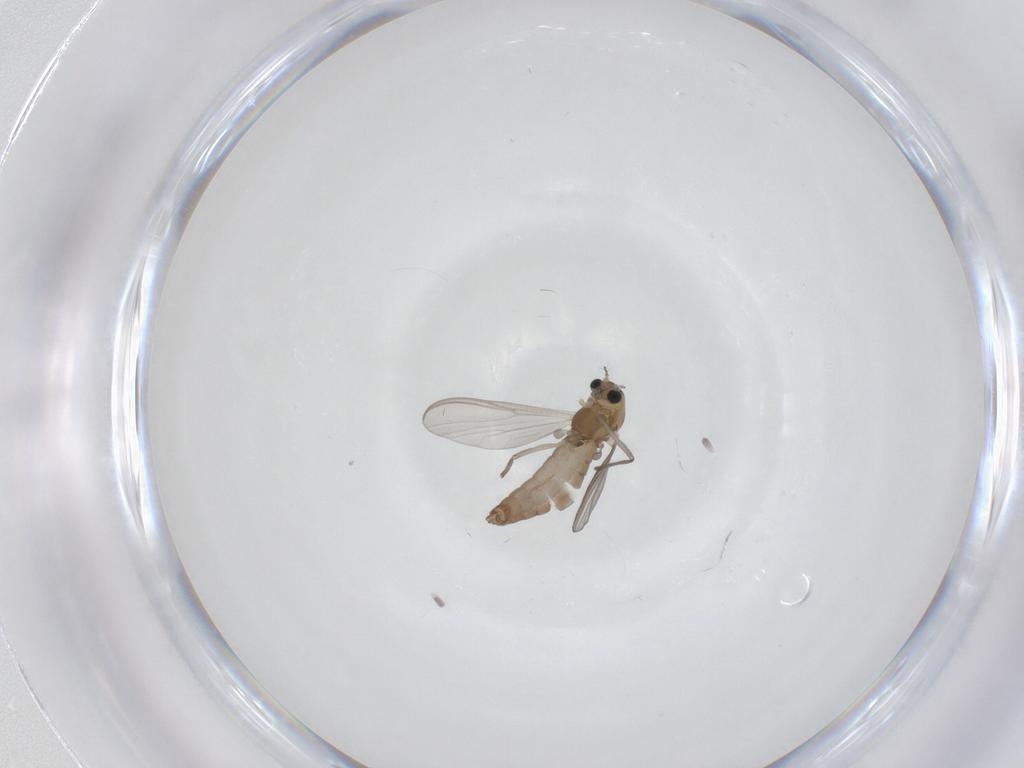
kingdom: Animalia
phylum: Arthropoda
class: Insecta
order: Diptera
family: Chironomidae
